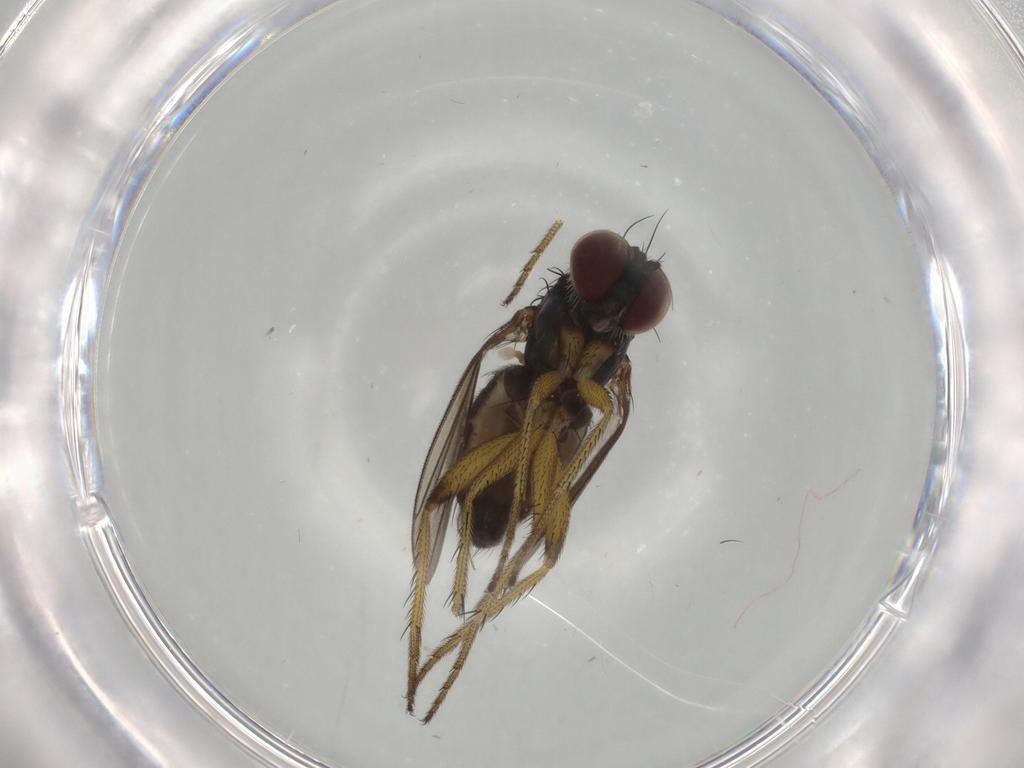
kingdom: Animalia
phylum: Arthropoda
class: Insecta
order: Diptera
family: Dolichopodidae
